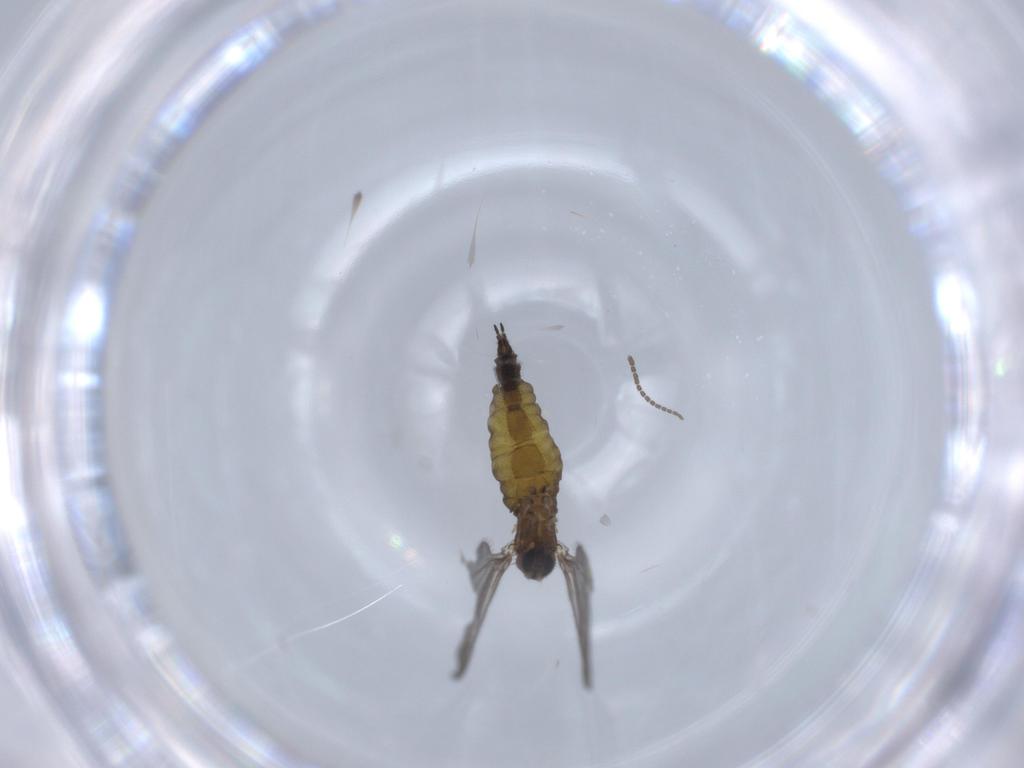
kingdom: Animalia
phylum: Arthropoda
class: Insecta
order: Diptera
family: Sciaridae
